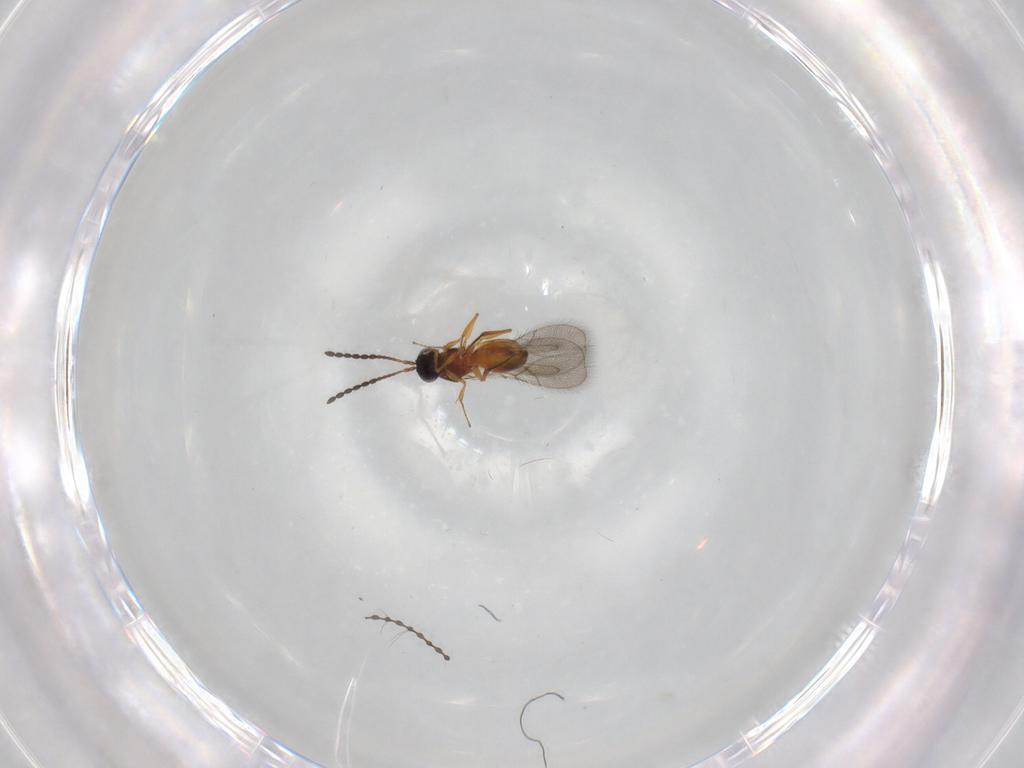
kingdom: Animalia
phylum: Arthropoda
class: Insecta
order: Hymenoptera
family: Figitidae
